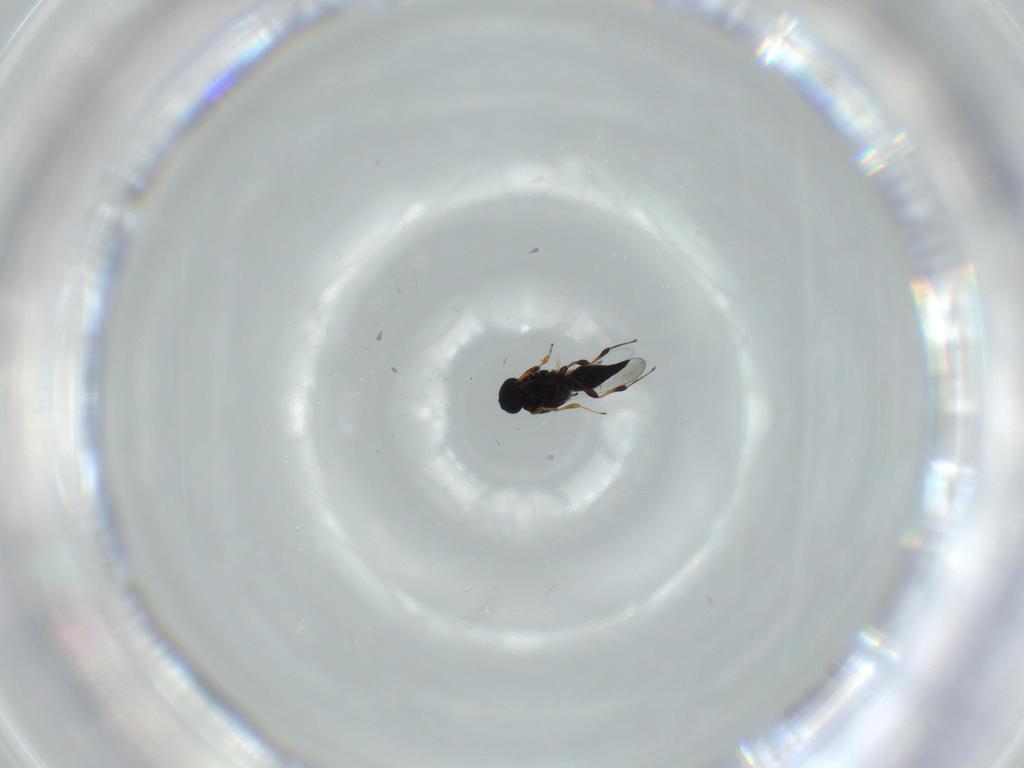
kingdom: Animalia
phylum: Arthropoda
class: Insecta
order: Hymenoptera
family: Platygastridae
